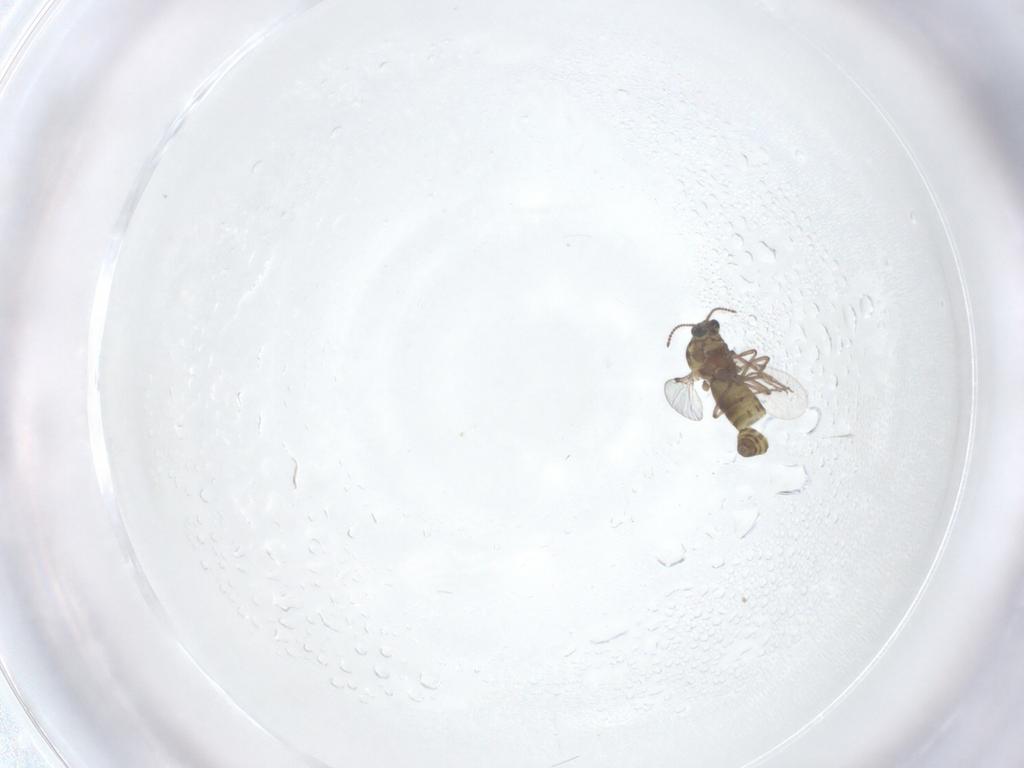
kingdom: Animalia
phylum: Arthropoda
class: Insecta
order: Diptera
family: Ceratopogonidae
